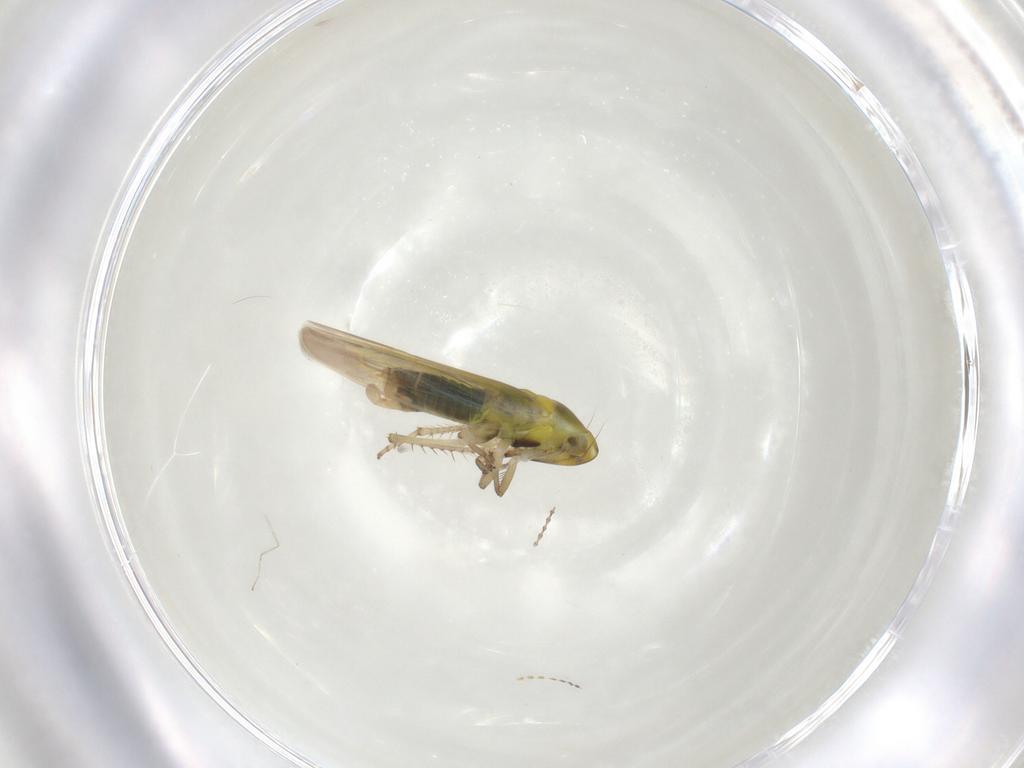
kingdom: Animalia
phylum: Arthropoda
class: Insecta
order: Hemiptera
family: Cicadellidae
